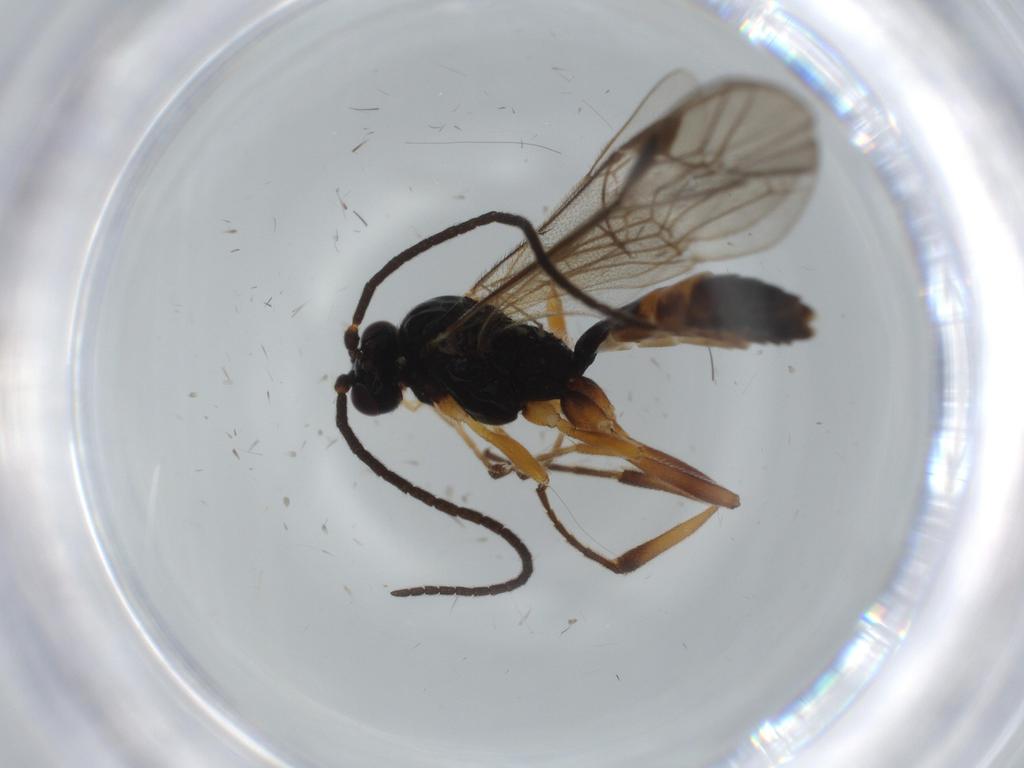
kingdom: Animalia
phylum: Arthropoda
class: Insecta
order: Hymenoptera
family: Ichneumonidae
